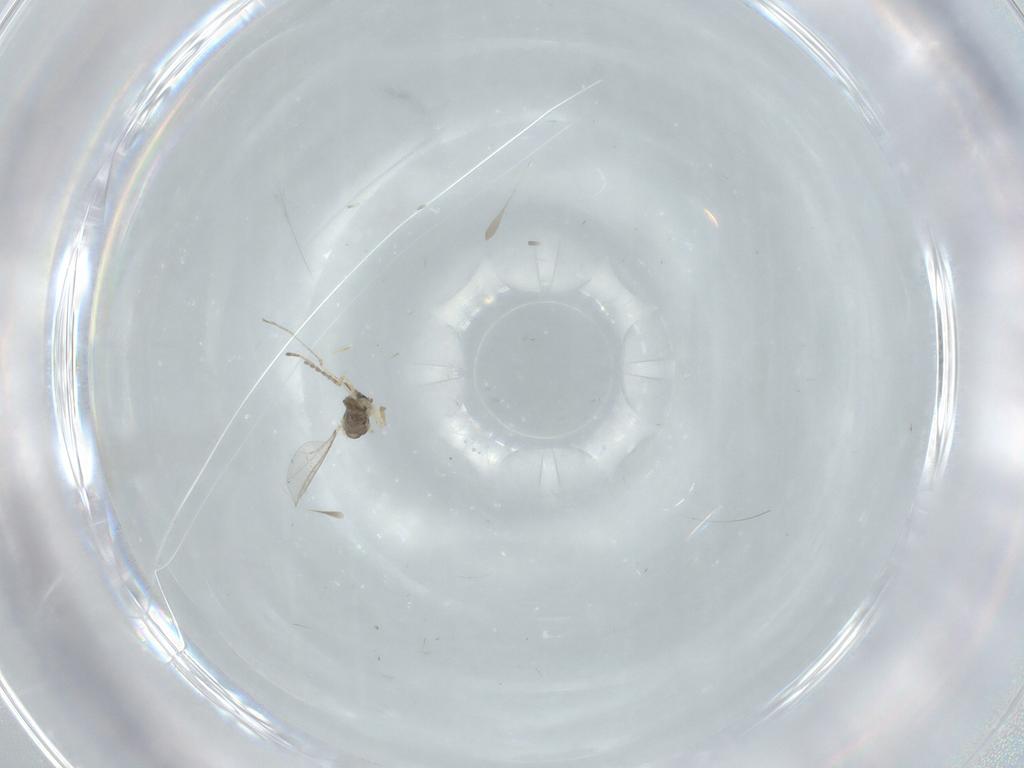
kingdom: Animalia
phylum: Arthropoda
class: Insecta
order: Diptera
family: Cecidomyiidae
